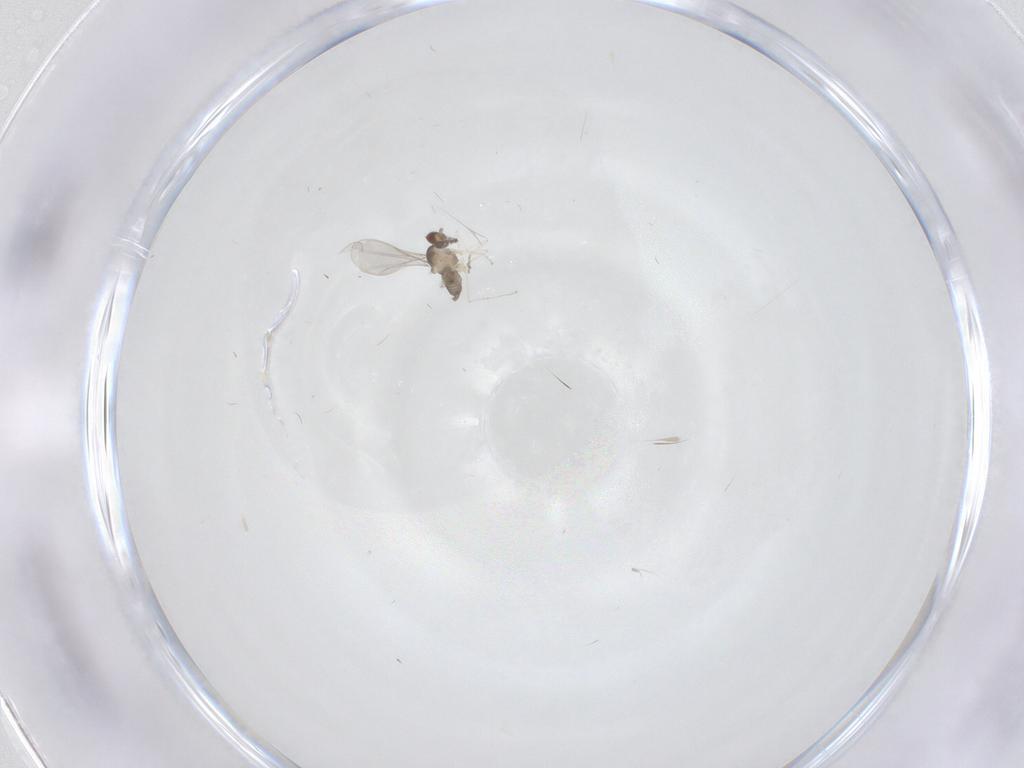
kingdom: Animalia
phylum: Arthropoda
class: Insecta
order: Diptera
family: Cecidomyiidae
